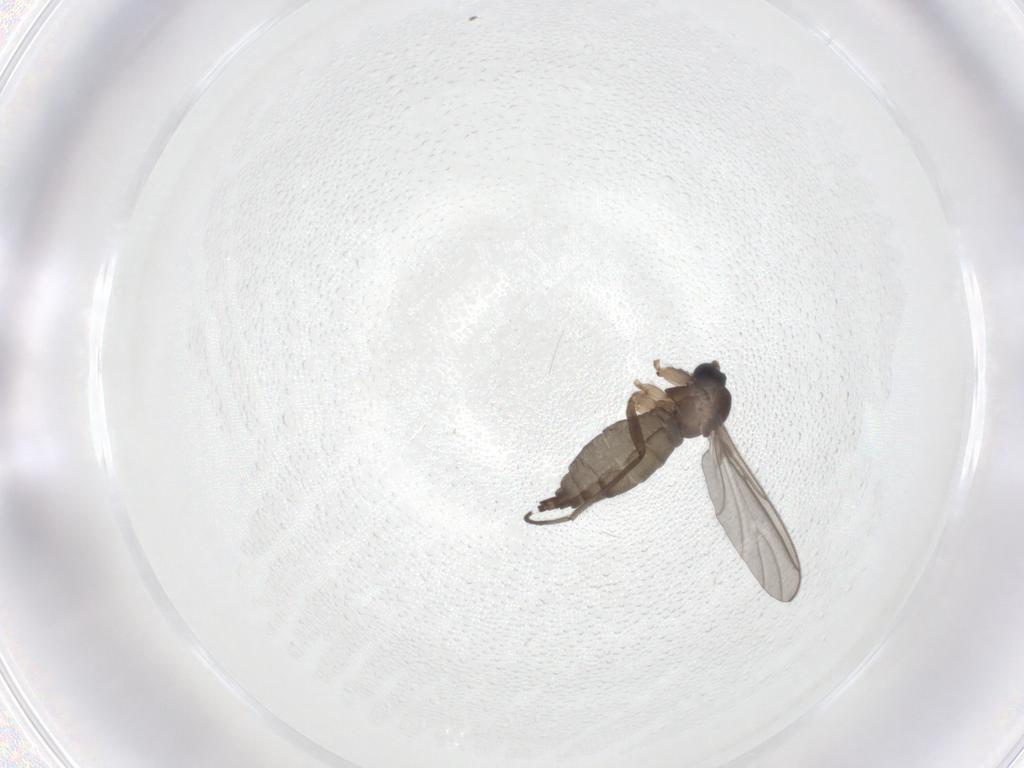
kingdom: Animalia
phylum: Arthropoda
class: Insecta
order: Diptera
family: Sciaridae
